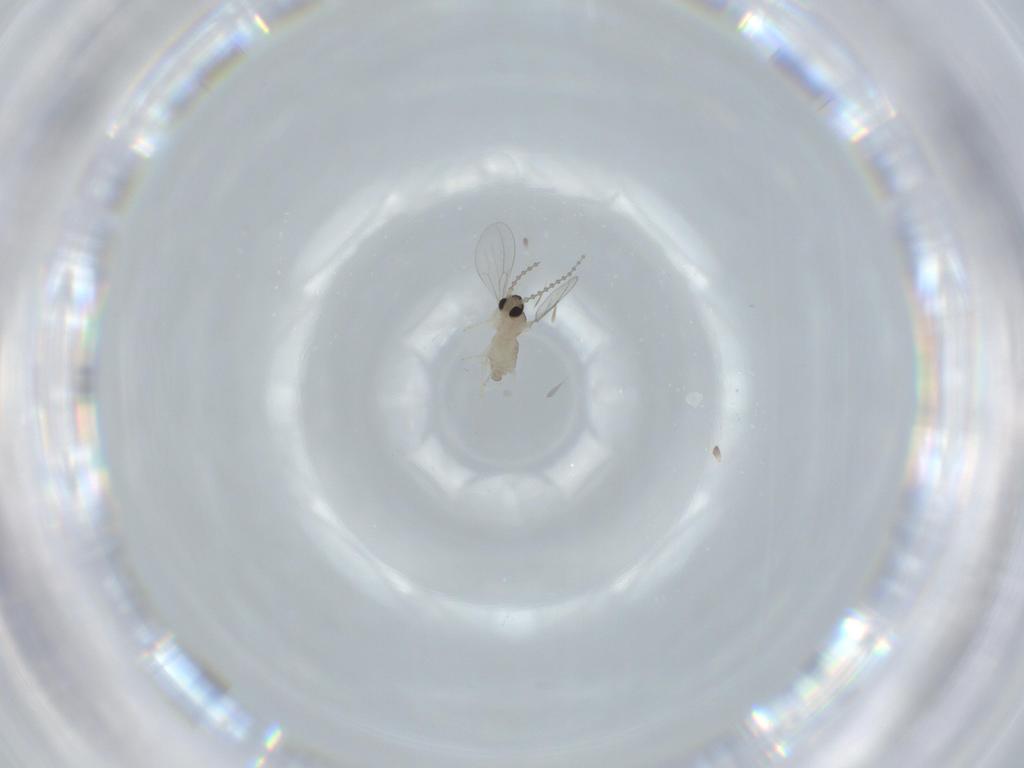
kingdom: Animalia
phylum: Arthropoda
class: Insecta
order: Diptera
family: Cecidomyiidae
